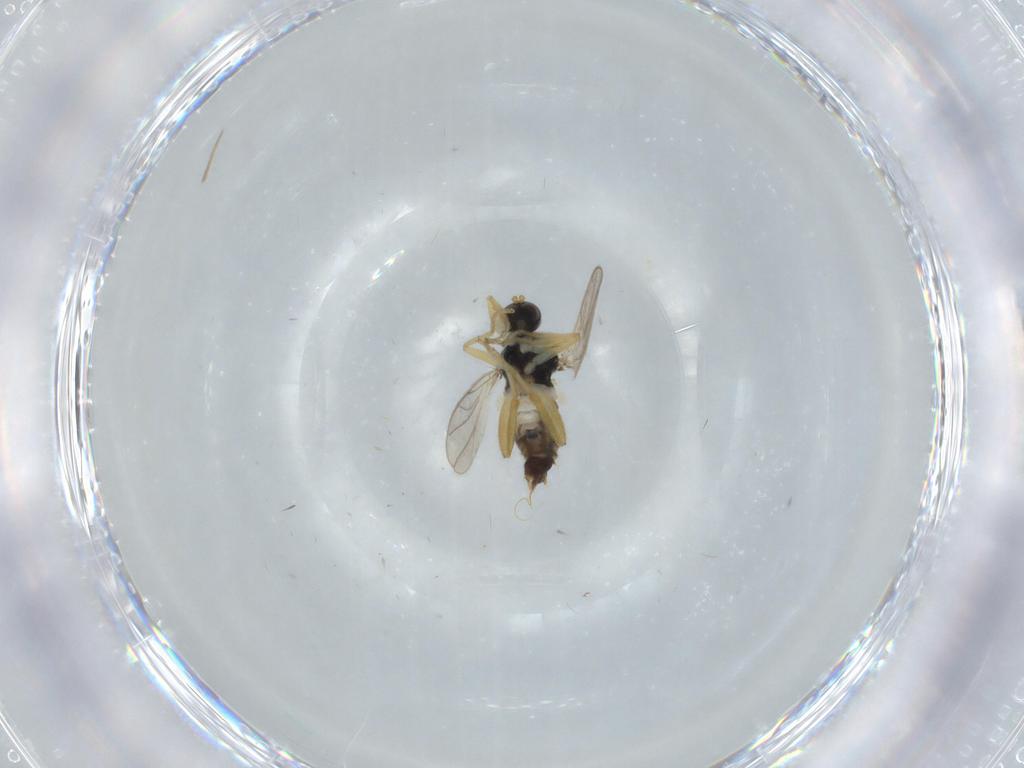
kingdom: Animalia
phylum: Arthropoda
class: Insecta
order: Diptera
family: Hybotidae
